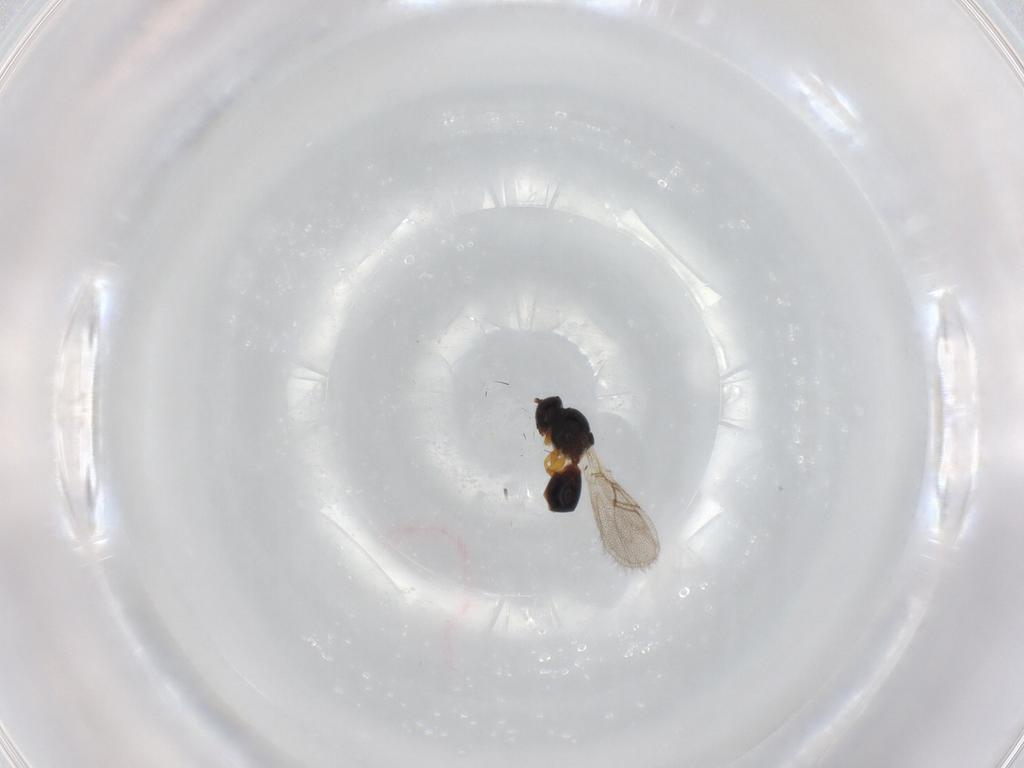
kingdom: Animalia
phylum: Arthropoda
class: Insecta
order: Hymenoptera
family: Figitidae
